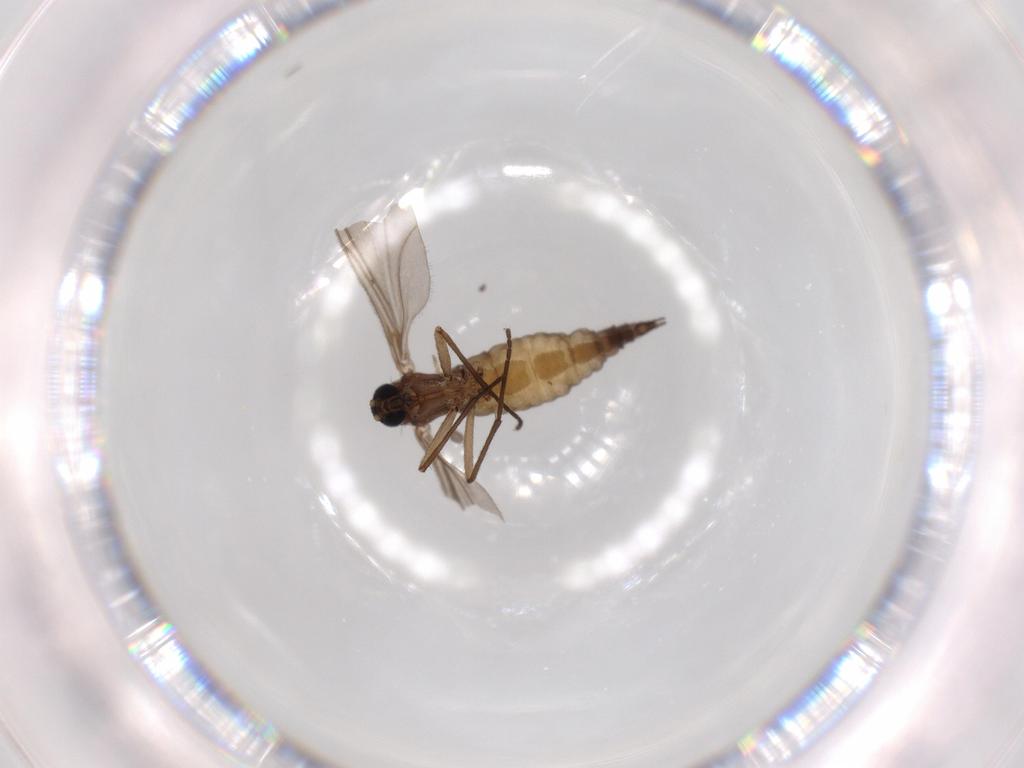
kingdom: Animalia
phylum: Arthropoda
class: Insecta
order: Diptera
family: Sciaridae
